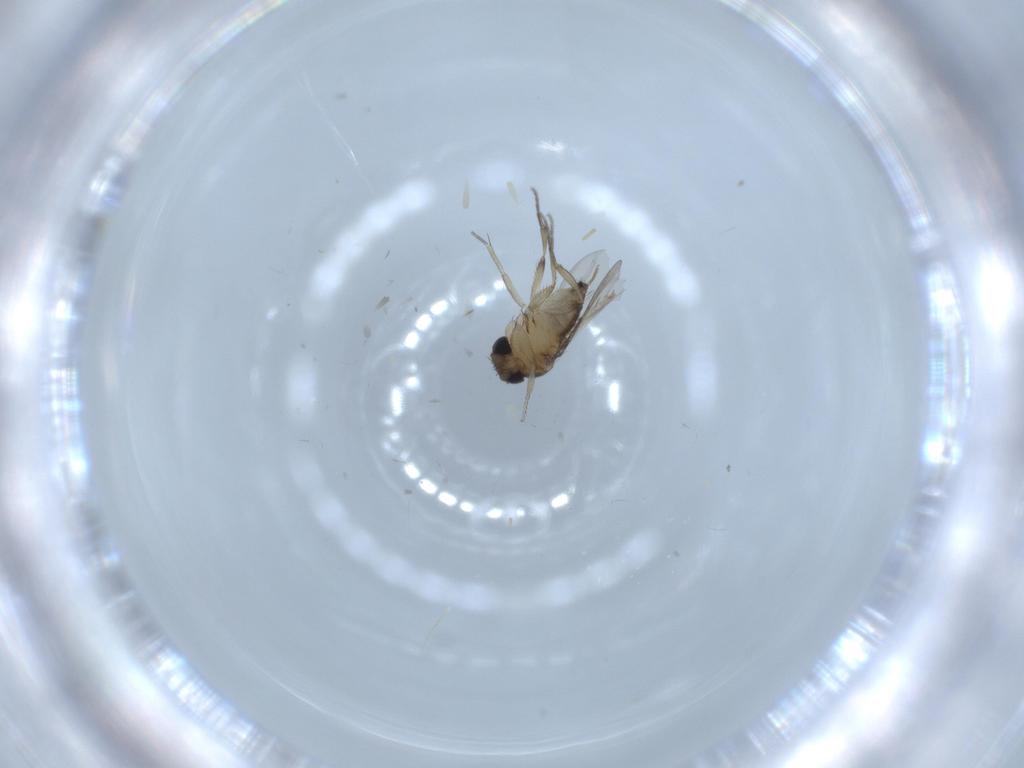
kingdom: Animalia
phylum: Arthropoda
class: Insecta
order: Diptera
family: Phoridae
